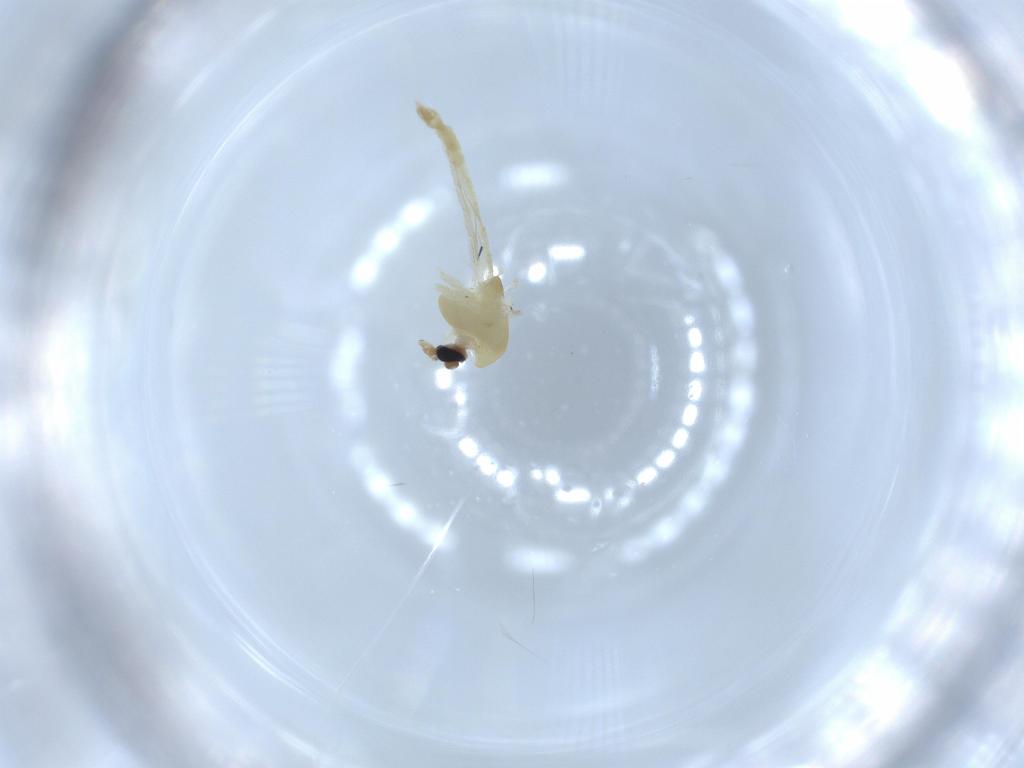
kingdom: Animalia
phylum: Arthropoda
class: Insecta
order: Diptera
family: Chironomidae
